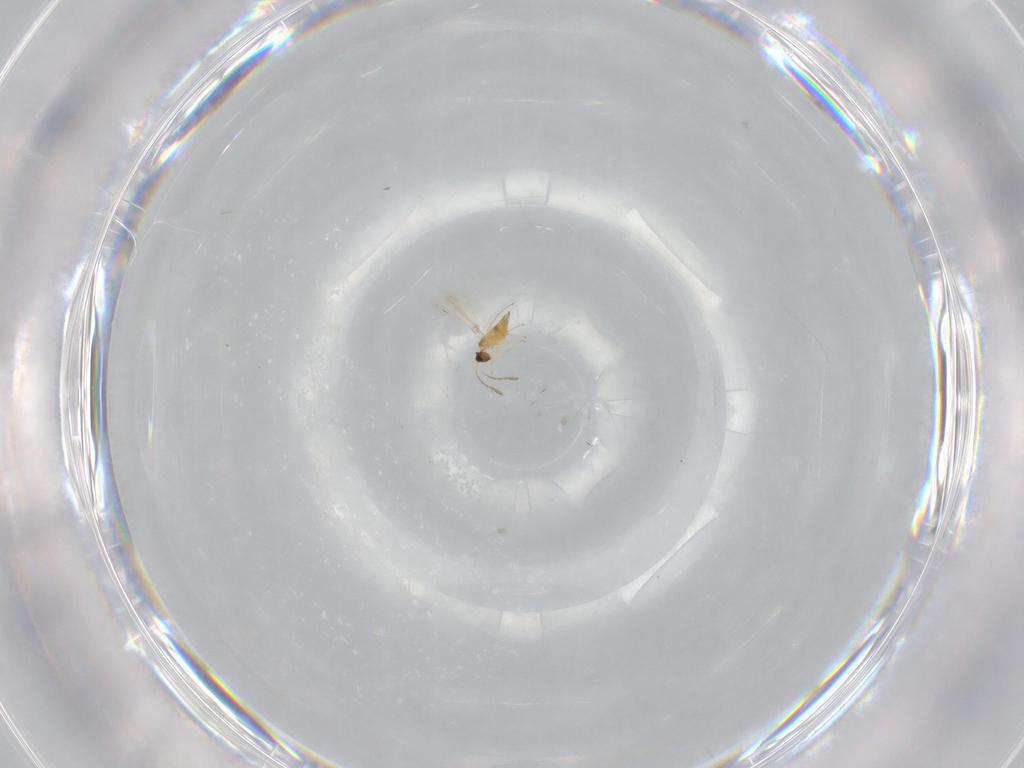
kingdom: Animalia
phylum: Arthropoda
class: Insecta
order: Hymenoptera
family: Mymaridae
